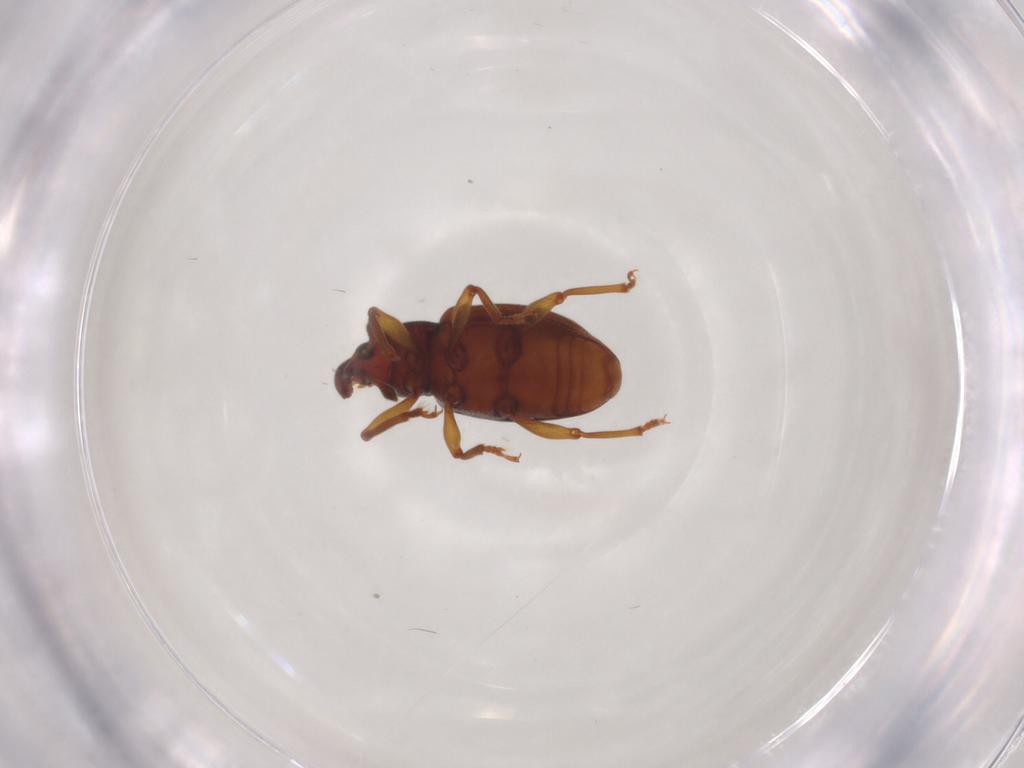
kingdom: Animalia
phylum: Arthropoda
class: Insecta
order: Coleoptera
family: Curculionidae
